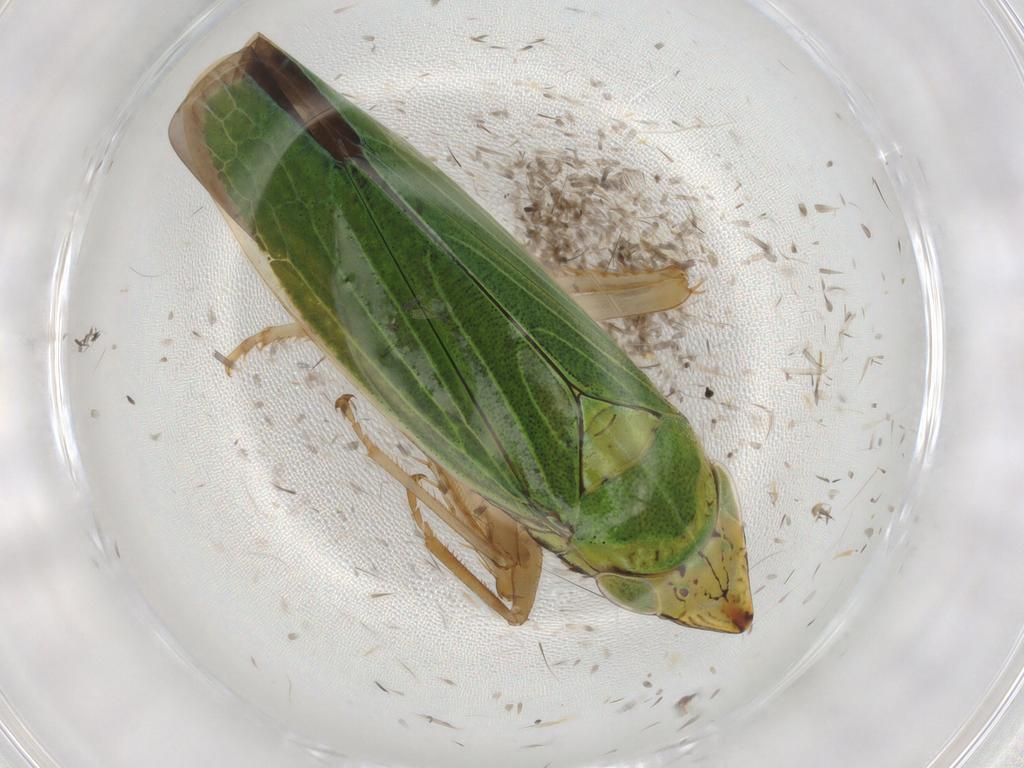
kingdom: Animalia
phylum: Arthropoda
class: Insecta
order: Hemiptera
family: Cicadellidae
